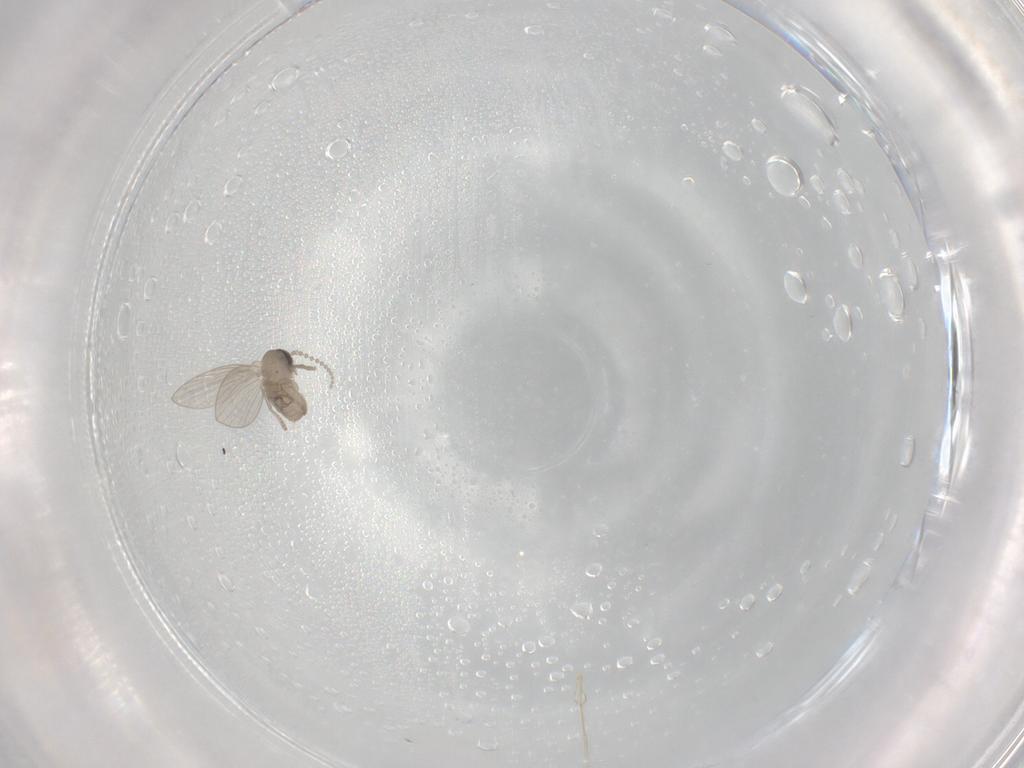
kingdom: Animalia
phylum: Arthropoda
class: Insecta
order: Diptera
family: Psychodidae
